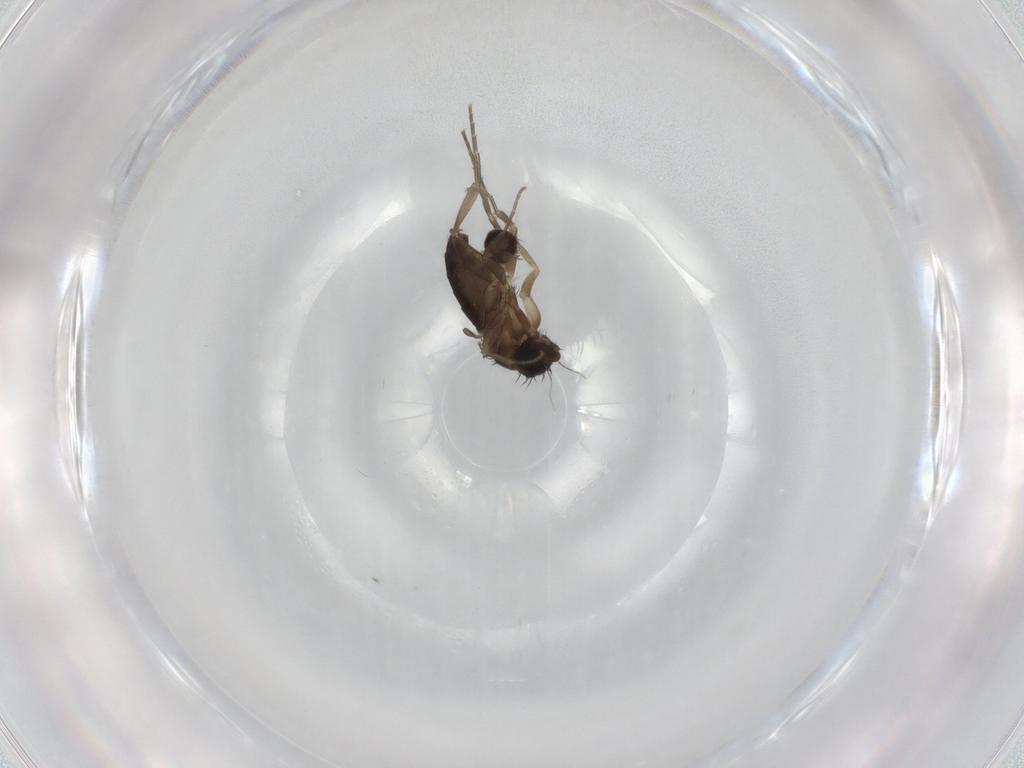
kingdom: Animalia
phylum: Arthropoda
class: Insecta
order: Diptera
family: Phoridae
